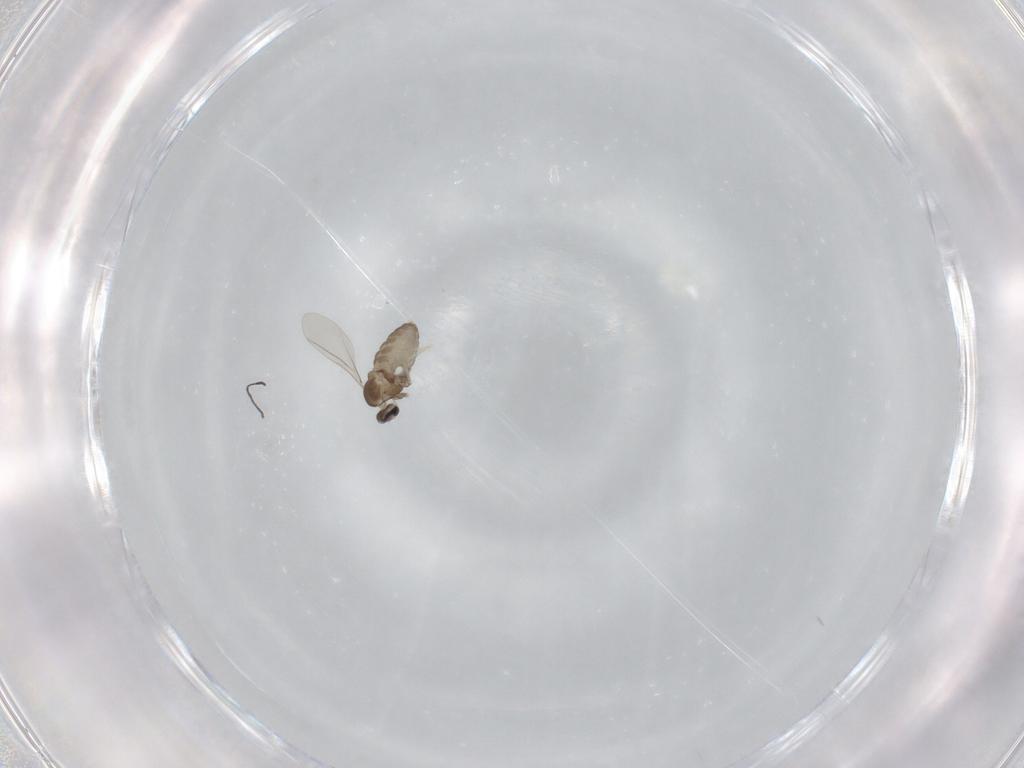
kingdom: Animalia
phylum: Arthropoda
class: Insecta
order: Diptera
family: Cecidomyiidae
